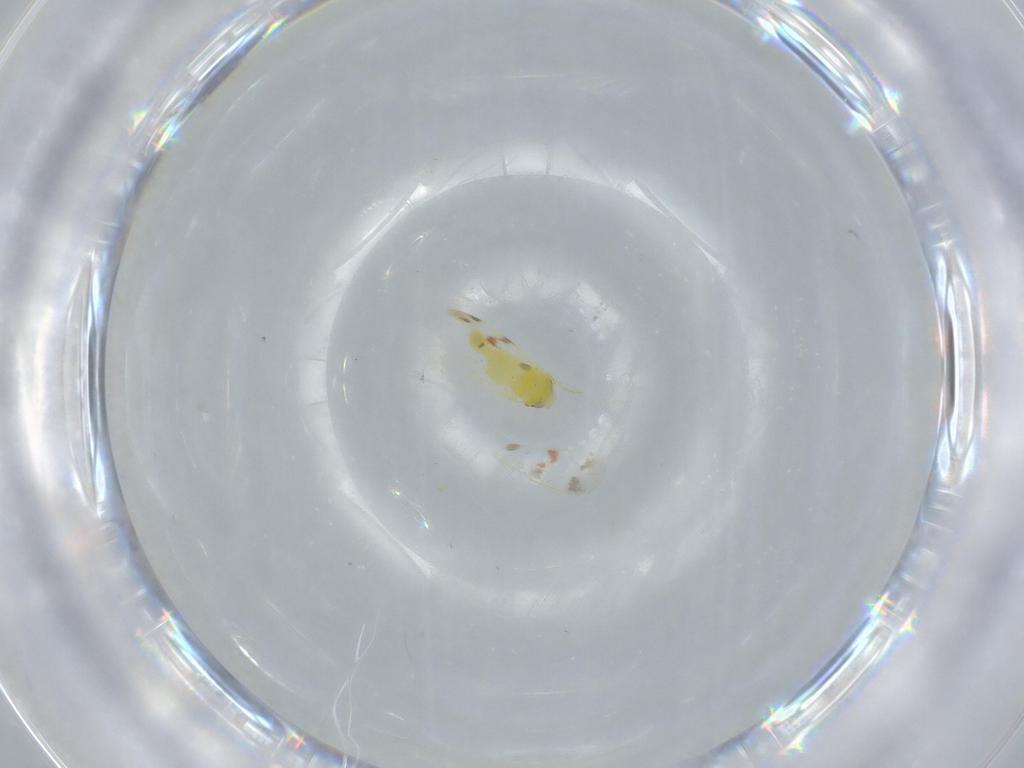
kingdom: Animalia
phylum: Arthropoda
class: Insecta
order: Hemiptera
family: Aleyrodidae
